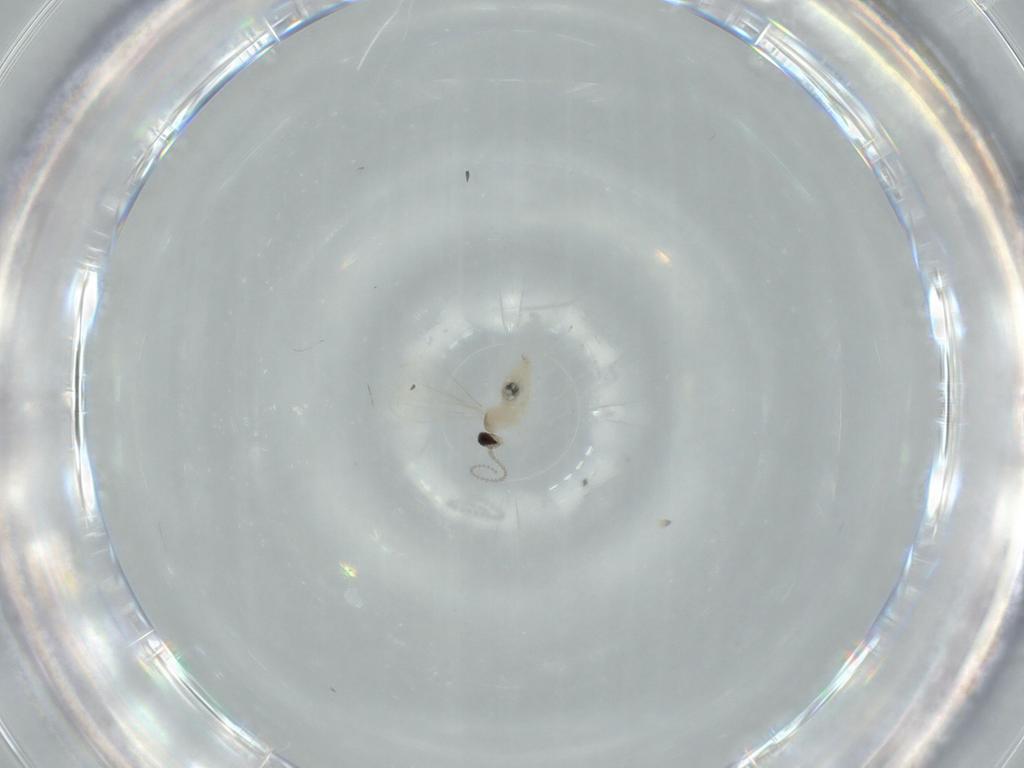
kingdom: Animalia
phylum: Arthropoda
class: Insecta
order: Diptera
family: Cecidomyiidae
